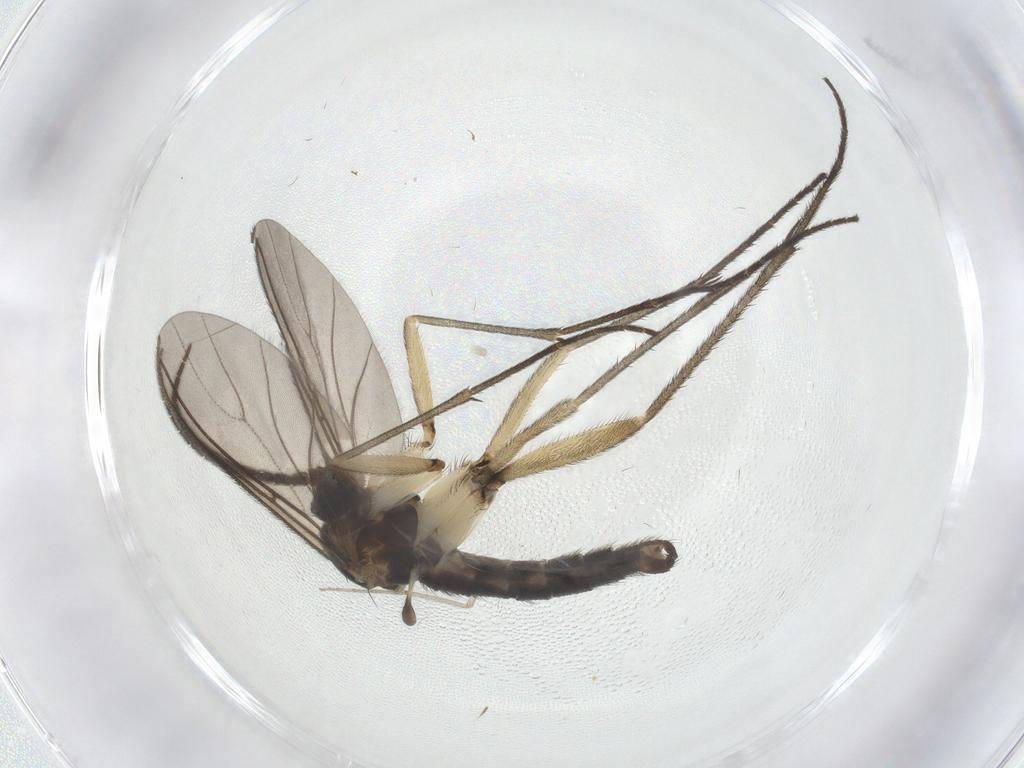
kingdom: Animalia
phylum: Arthropoda
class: Insecta
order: Diptera
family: Sciaridae
